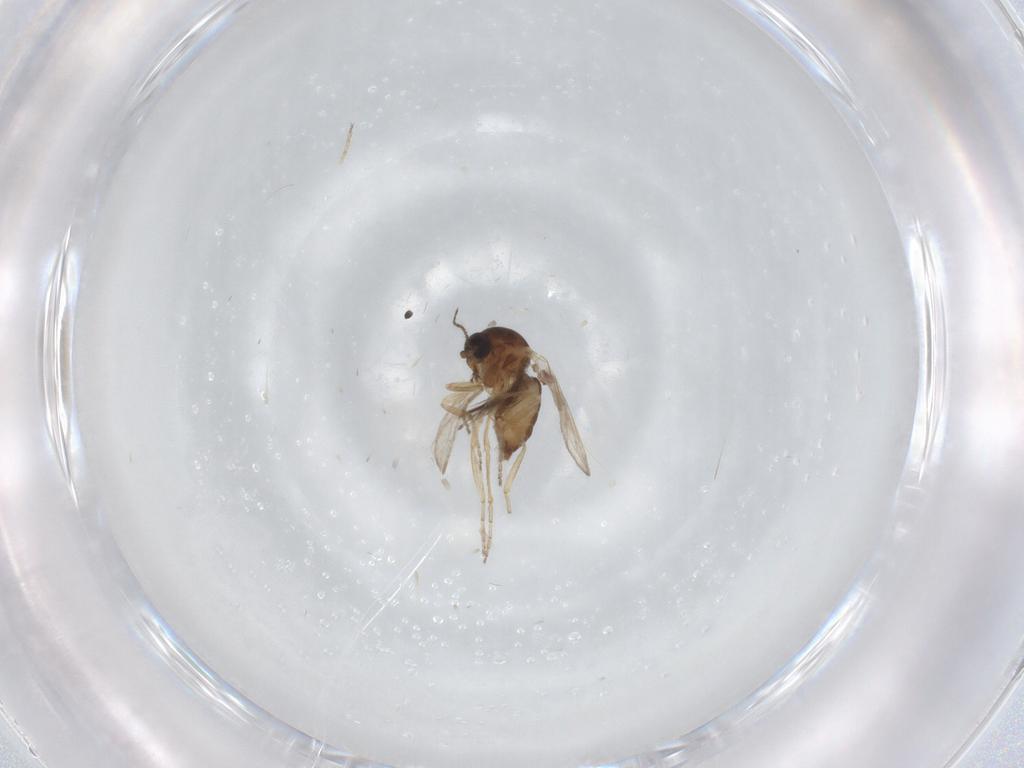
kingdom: Animalia
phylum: Arthropoda
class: Insecta
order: Diptera
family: Ceratopogonidae
